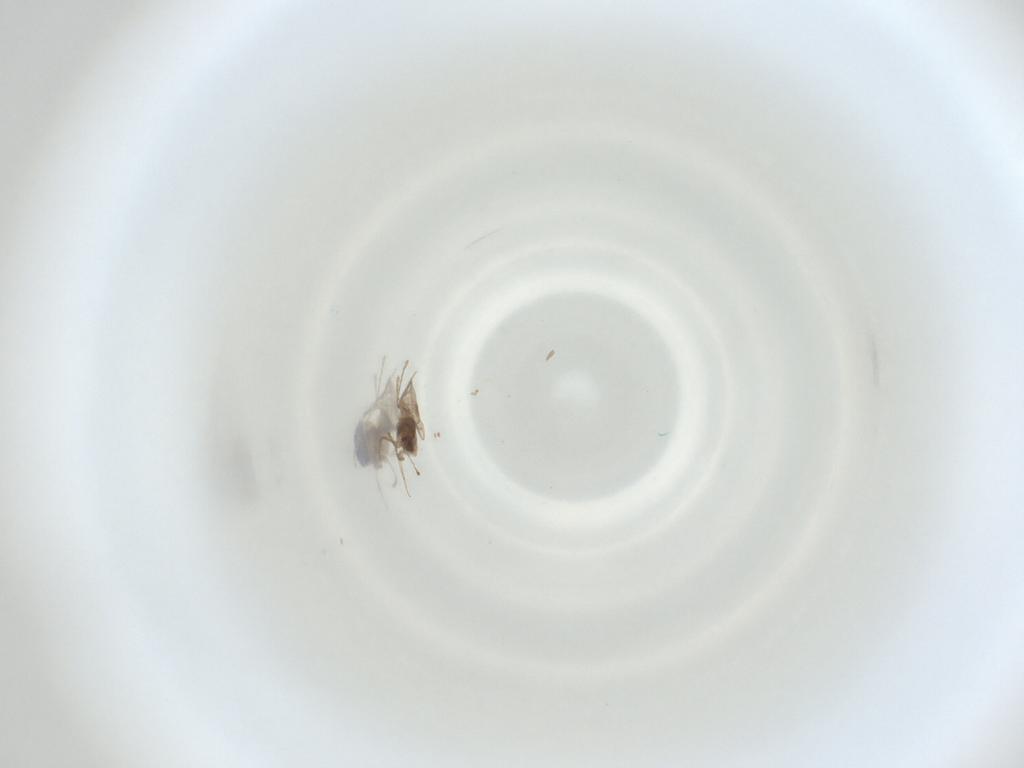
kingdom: Animalia
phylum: Arthropoda
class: Insecta
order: Diptera
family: Cecidomyiidae
